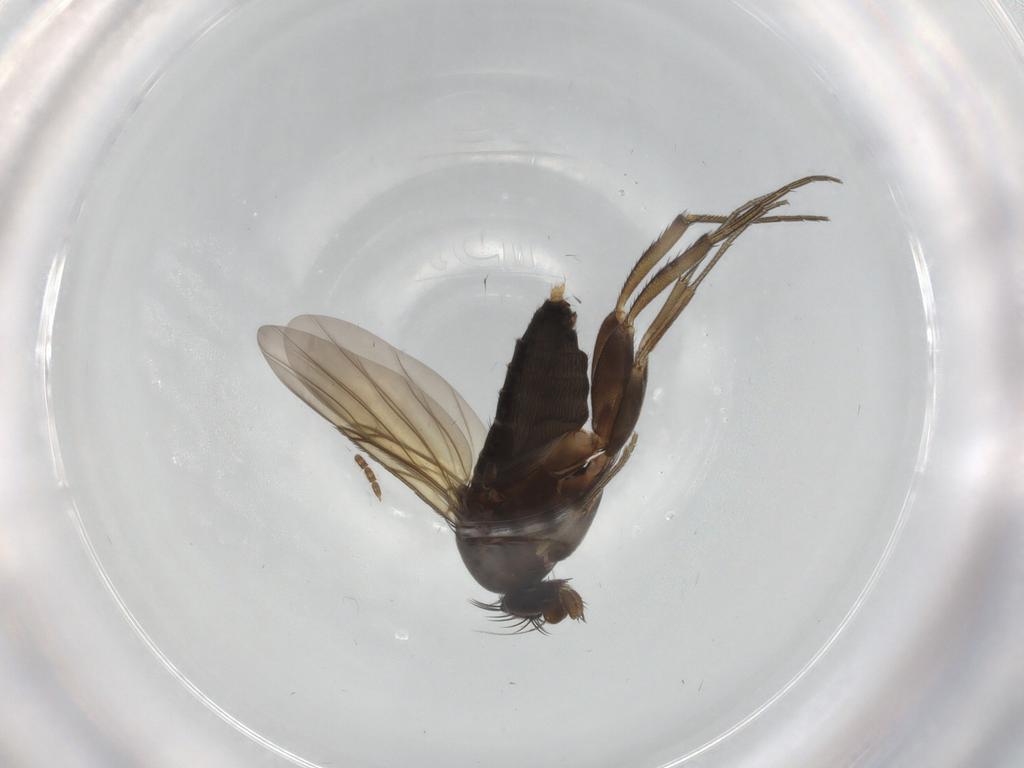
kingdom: Animalia
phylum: Arthropoda
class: Insecta
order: Diptera
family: Phoridae
